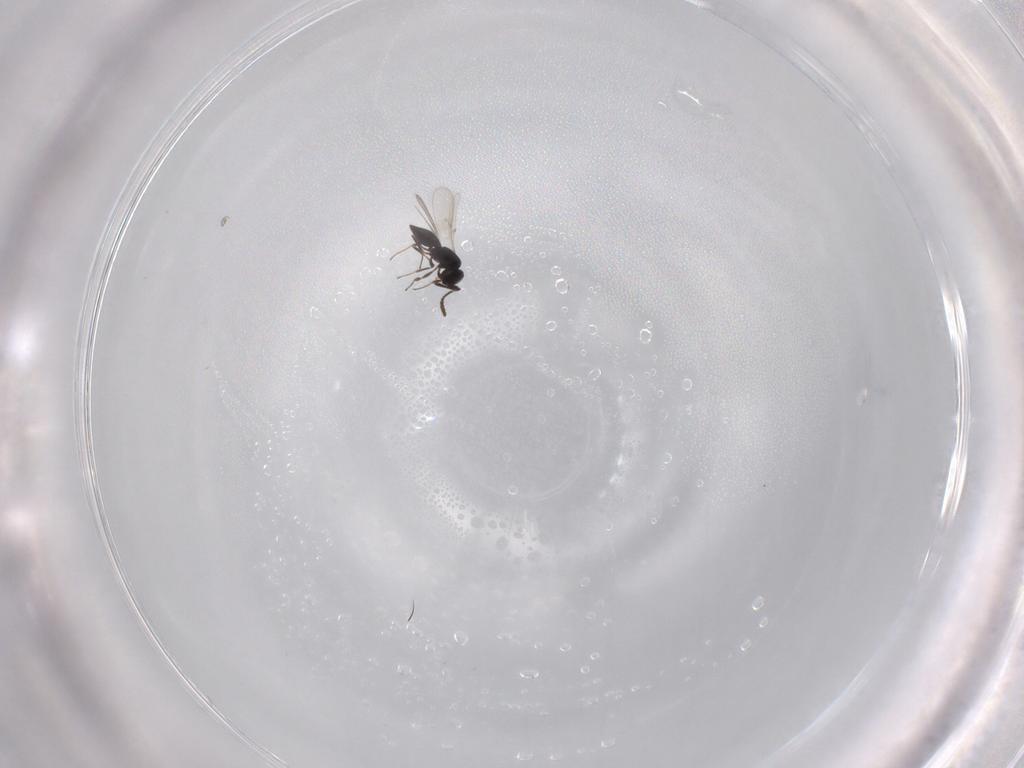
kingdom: Animalia
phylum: Arthropoda
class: Insecta
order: Hymenoptera
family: Scelionidae
